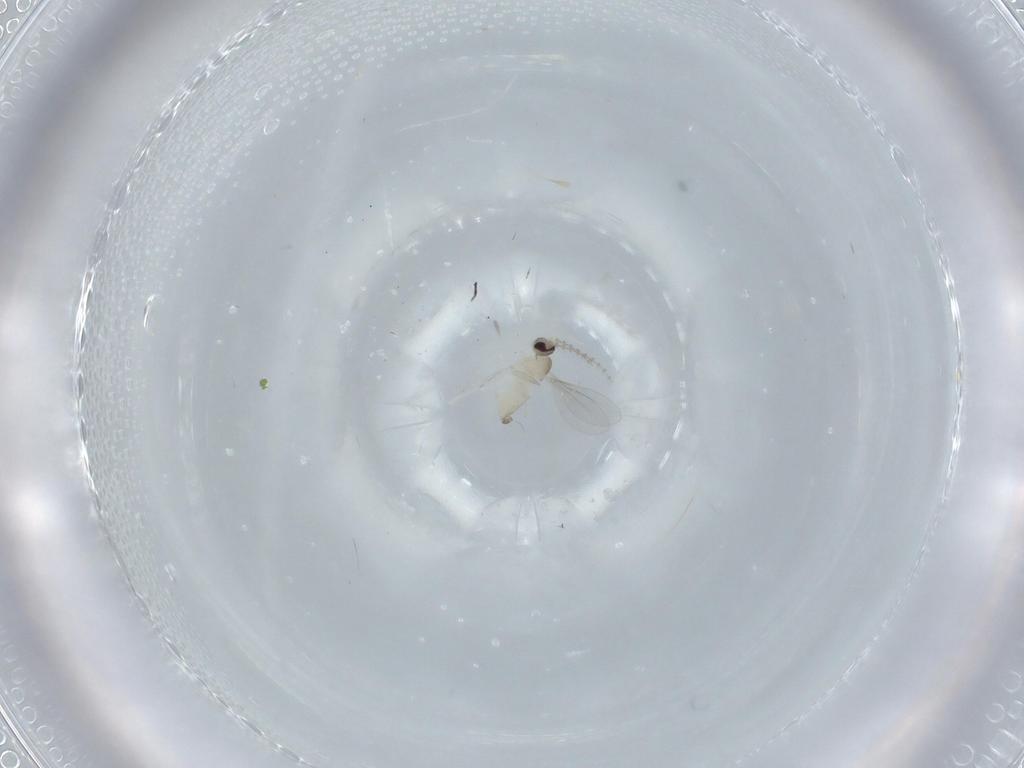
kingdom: Animalia
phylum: Arthropoda
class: Insecta
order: Diptera
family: Cecidomyiidae
